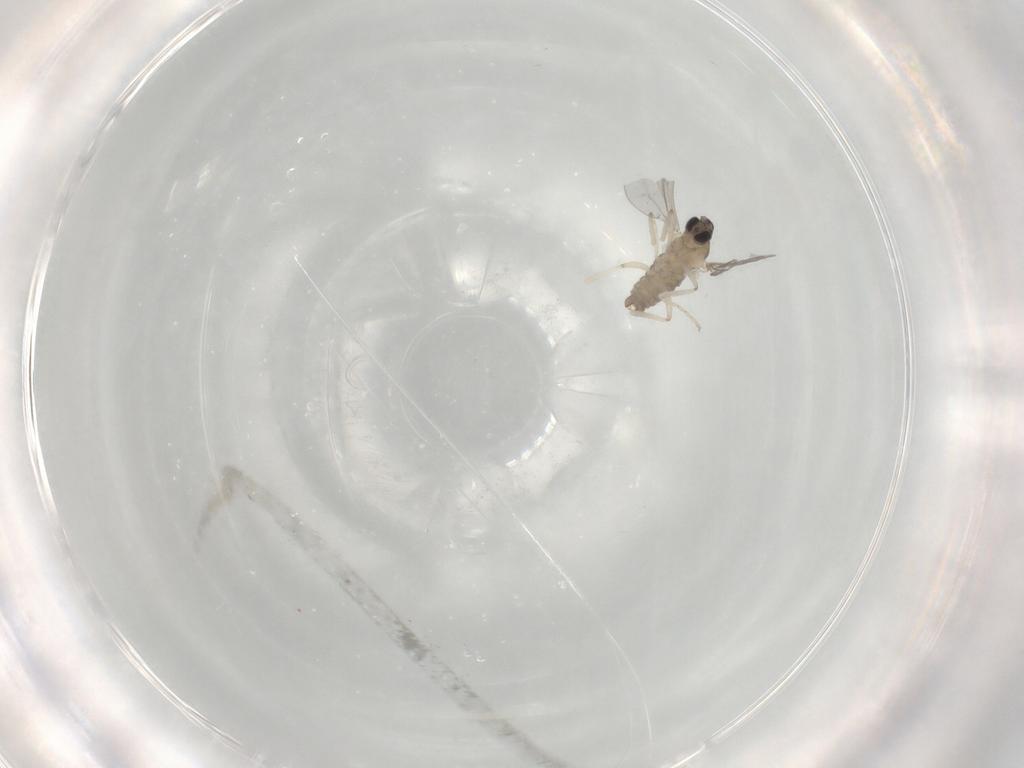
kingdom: Animalia
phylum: Arthropoda
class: Insecta
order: Diptera
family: Cecidomyiidae
